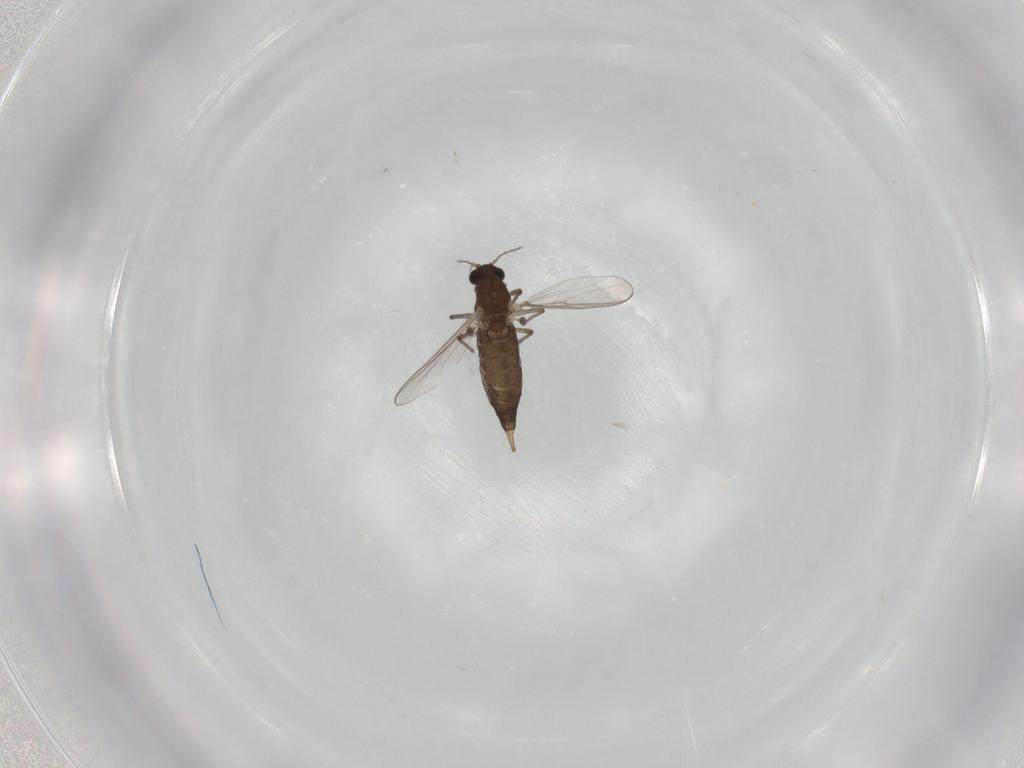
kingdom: Animalia
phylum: Arthropoda
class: Insecta
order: Diptera
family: Chironomidae
